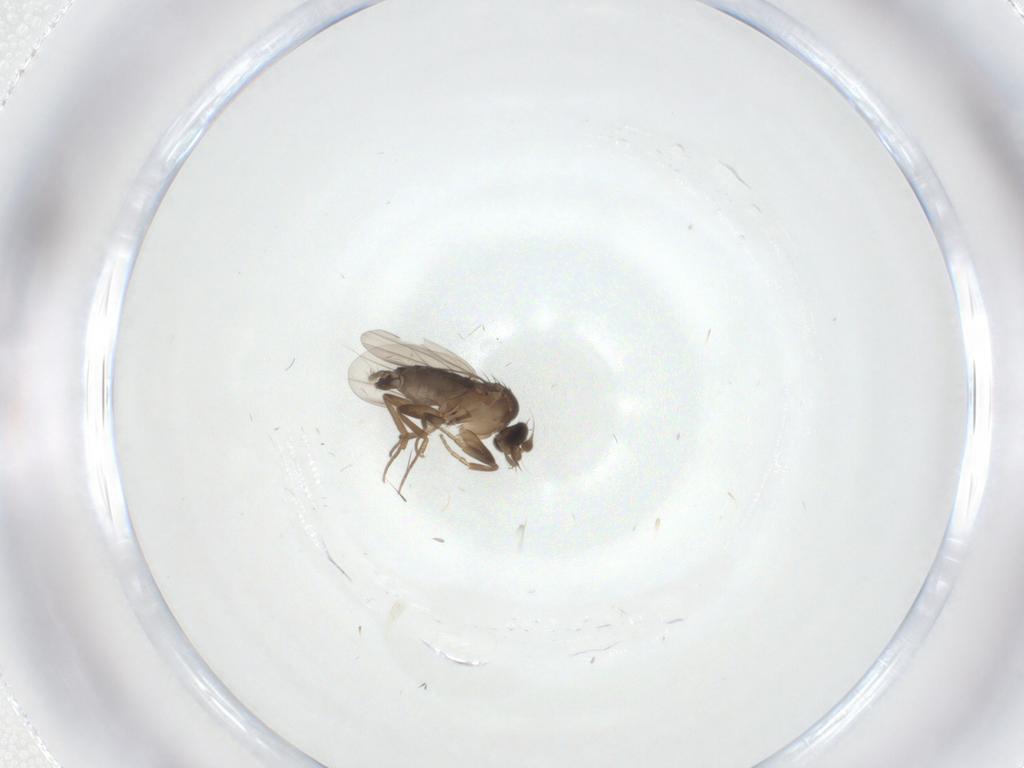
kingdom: Animalia
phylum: Arthropoda
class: Insecta
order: Diptera
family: Phoridae
